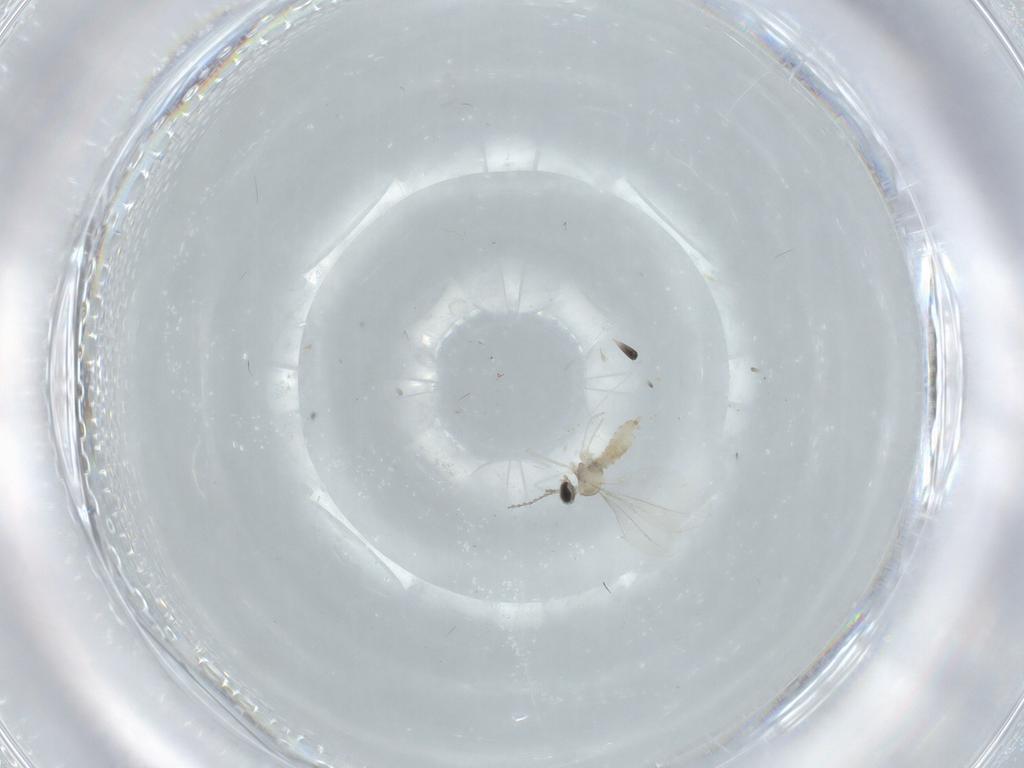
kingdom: Animalia
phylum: Arthropoda
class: Insecta
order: Diptera
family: Cecidomyiidae
